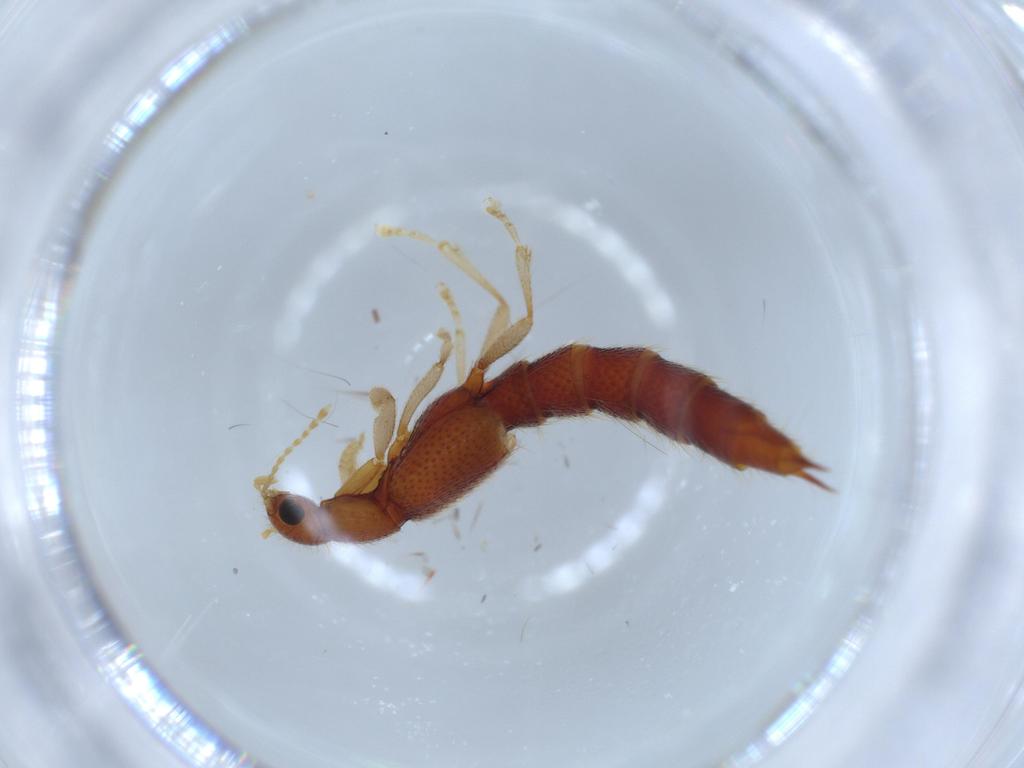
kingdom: Animalia
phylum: Arthropoda
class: Insecta
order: Coleoptera
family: Staphylinidae
